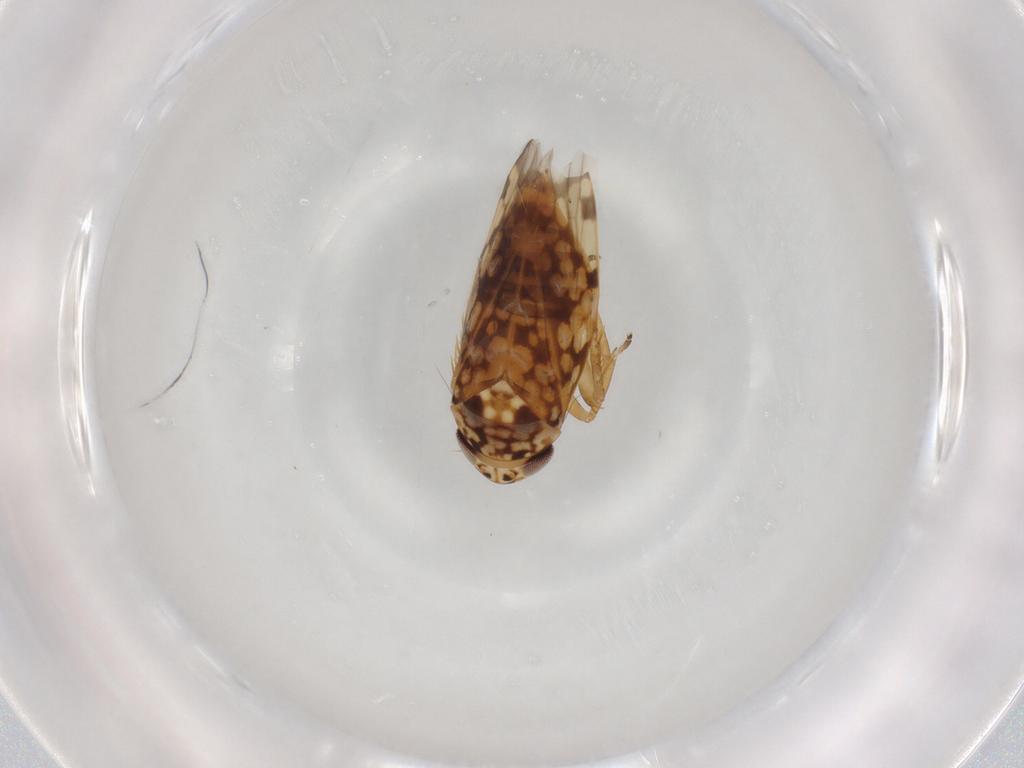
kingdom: Animalia
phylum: Arthropoda
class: Insecta
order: Hemiptera
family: Cicadellidae
